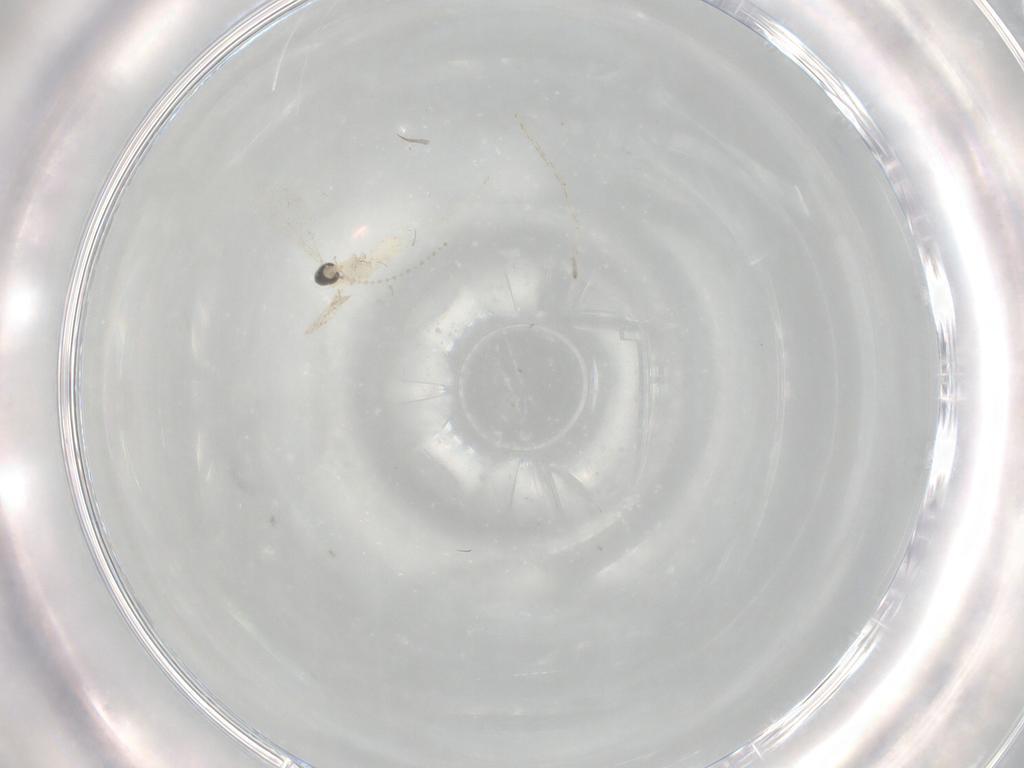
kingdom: Animalia
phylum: Arthropoda
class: Insecta
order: Diptera
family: Cecidomyiidae
